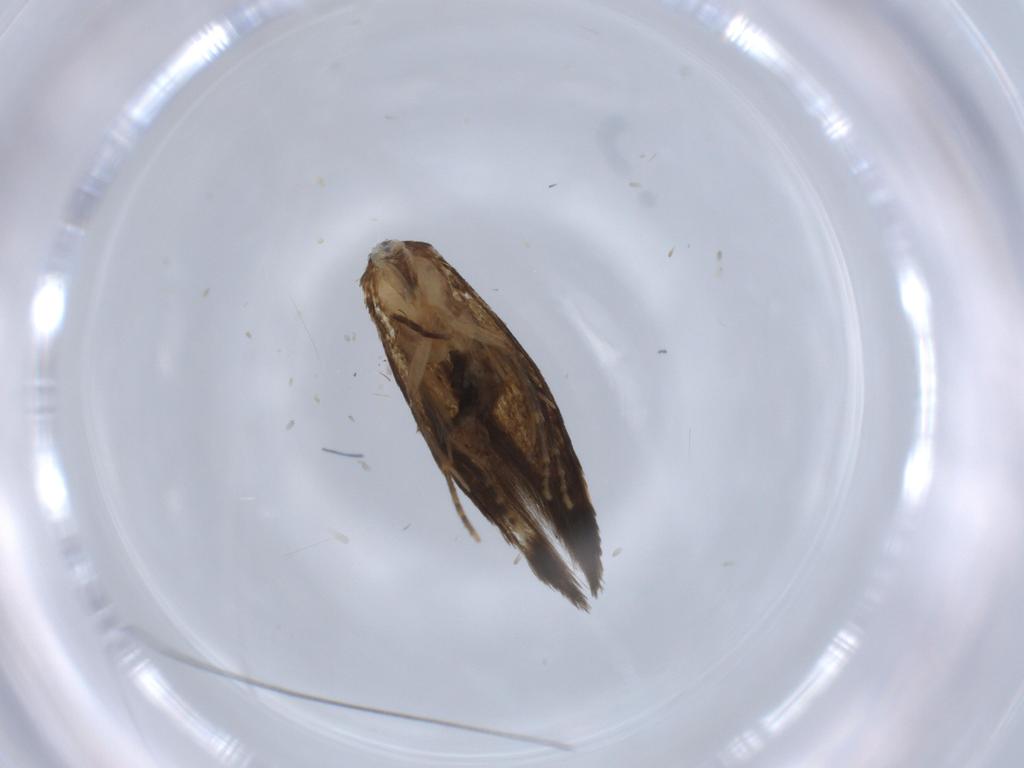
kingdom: Animalia
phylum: Arthropoda
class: Insecta
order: Lepidoptera
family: Tineidae
